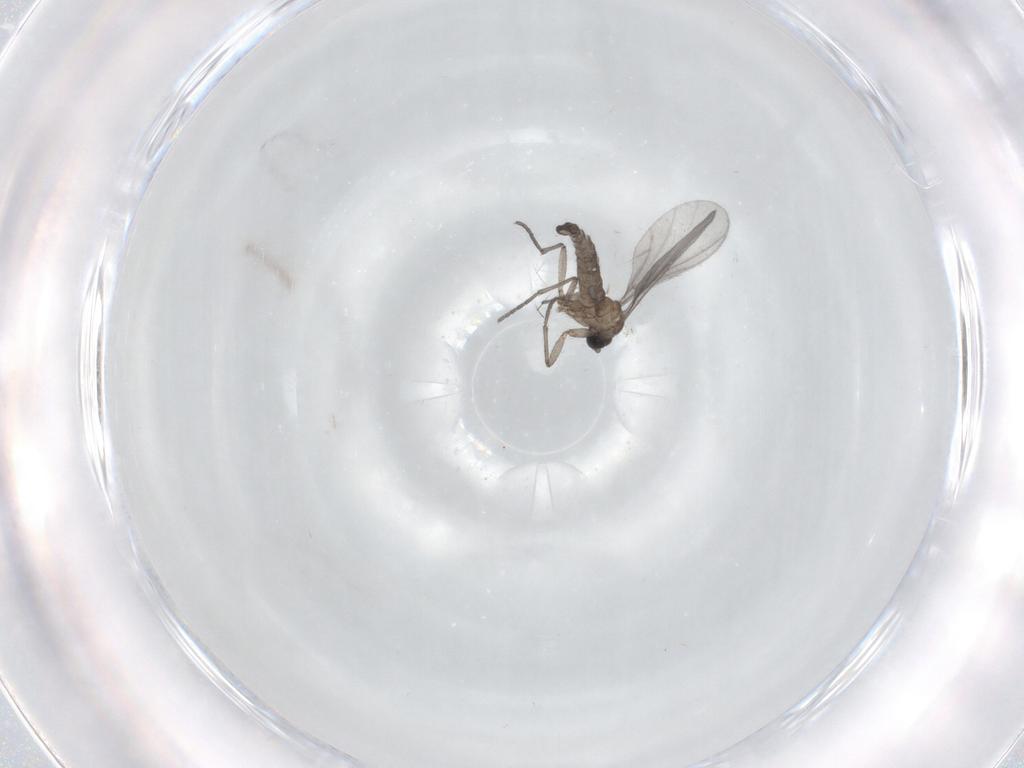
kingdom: Animalia
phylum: Arthropoda
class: Insecta
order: Diptera
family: Sciaridae
